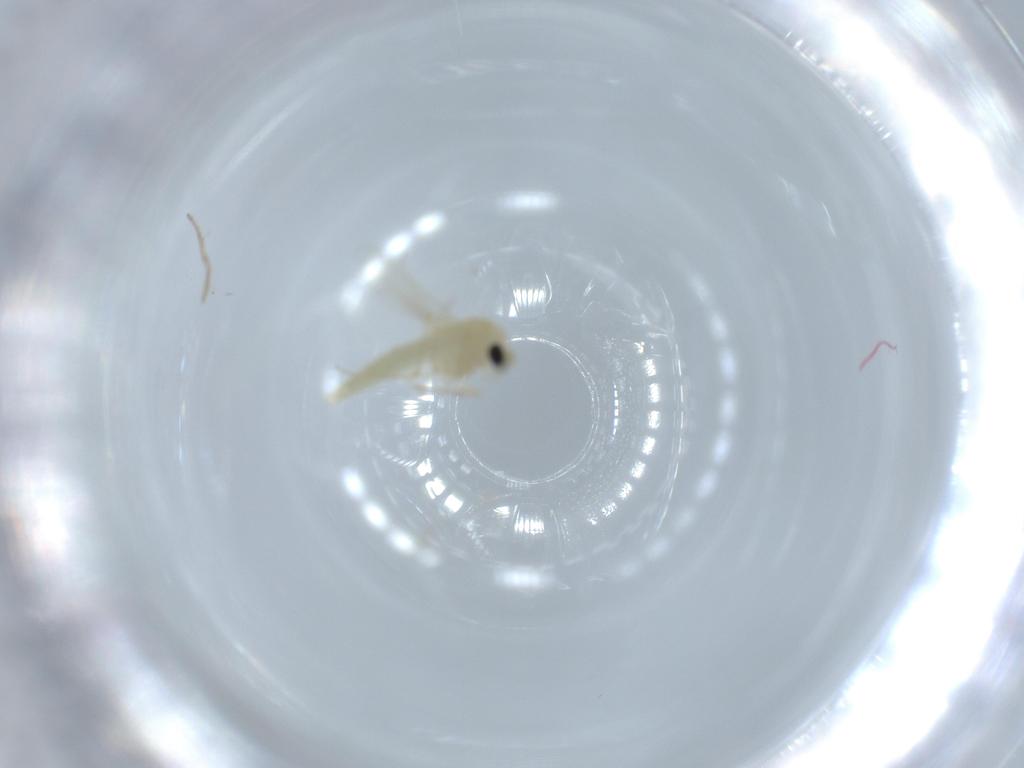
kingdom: Animalia
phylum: Arthropoda
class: Insecta
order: Diptera
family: Chironomidae
